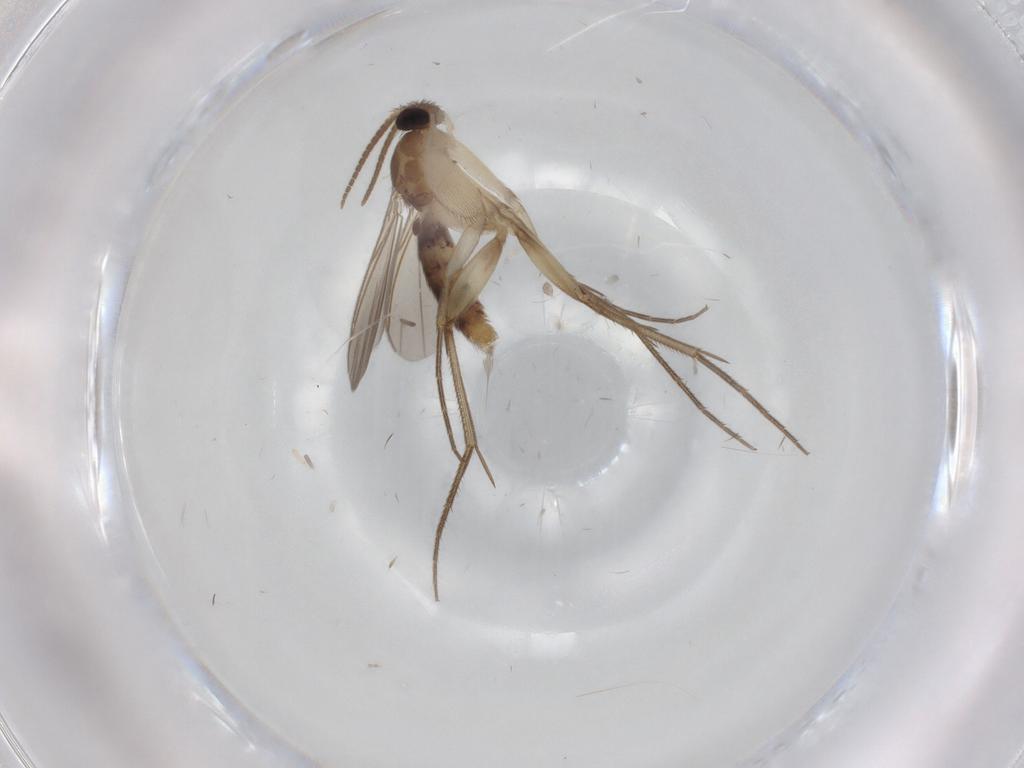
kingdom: Animalia
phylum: Arthropoda
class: Insecta
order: Diptera
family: Mycetophilidae
